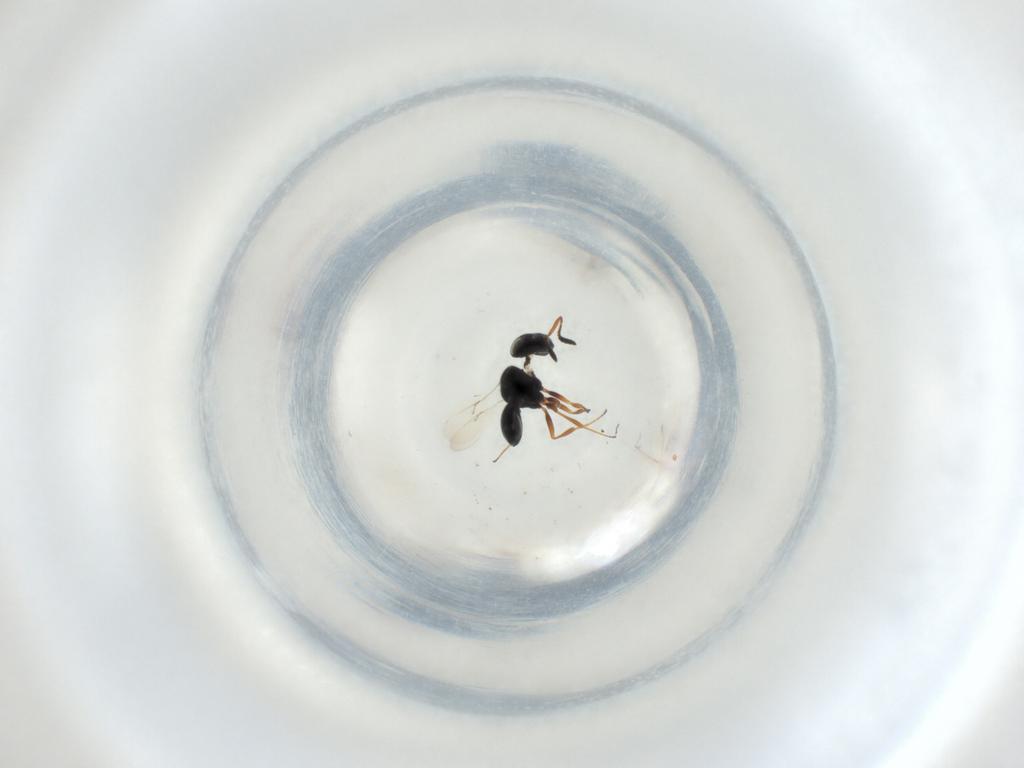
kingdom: Animalia
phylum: Arthropoda
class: Insecta
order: Hymenoptera
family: Scelionidae
